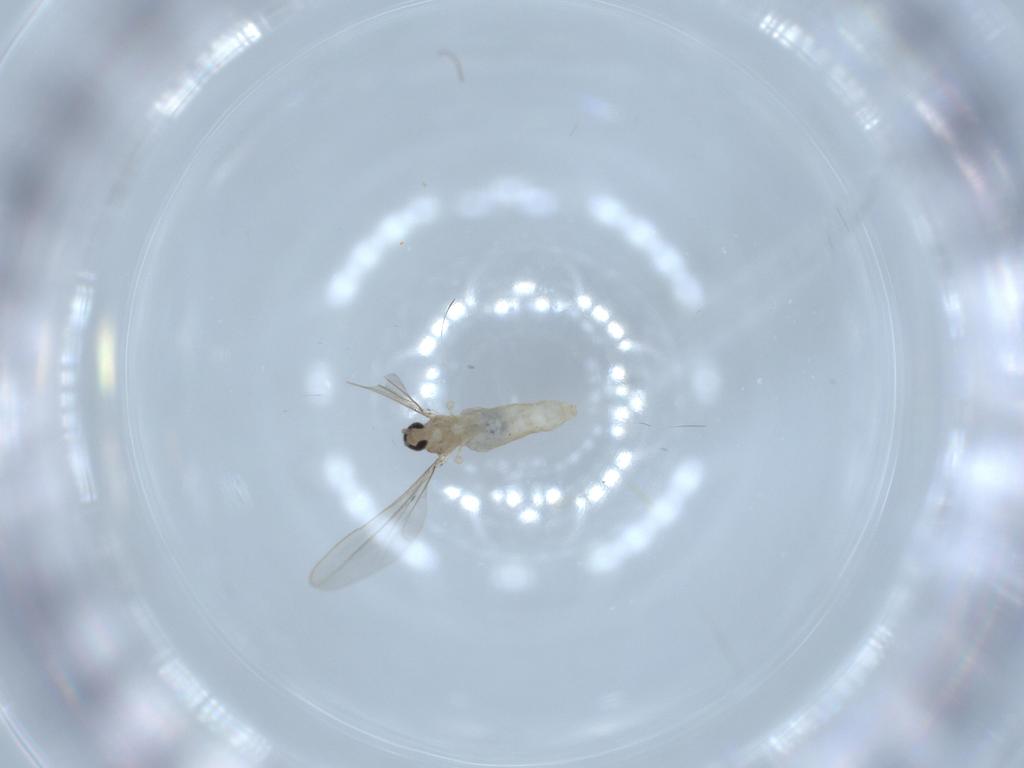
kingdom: Animalia
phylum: Arthropoda
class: Insecta
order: Diptera
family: Cecidomyiidae
